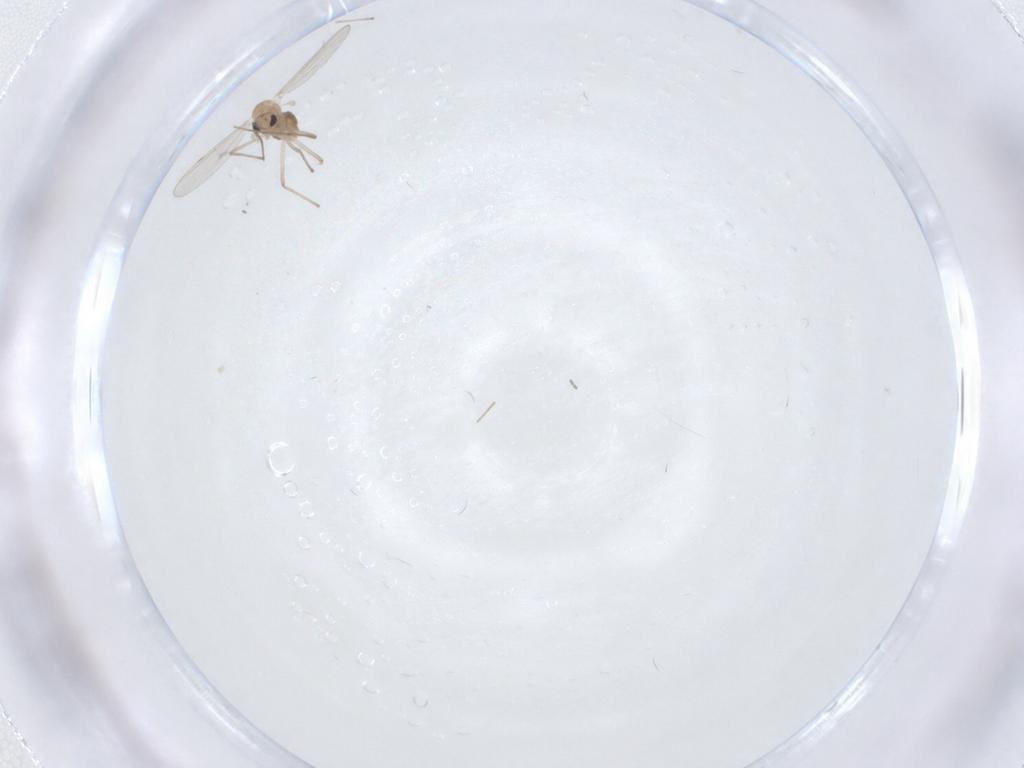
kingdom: Animalia
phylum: Arthropoda
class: Insecta
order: Diptera
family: Chironomidae
